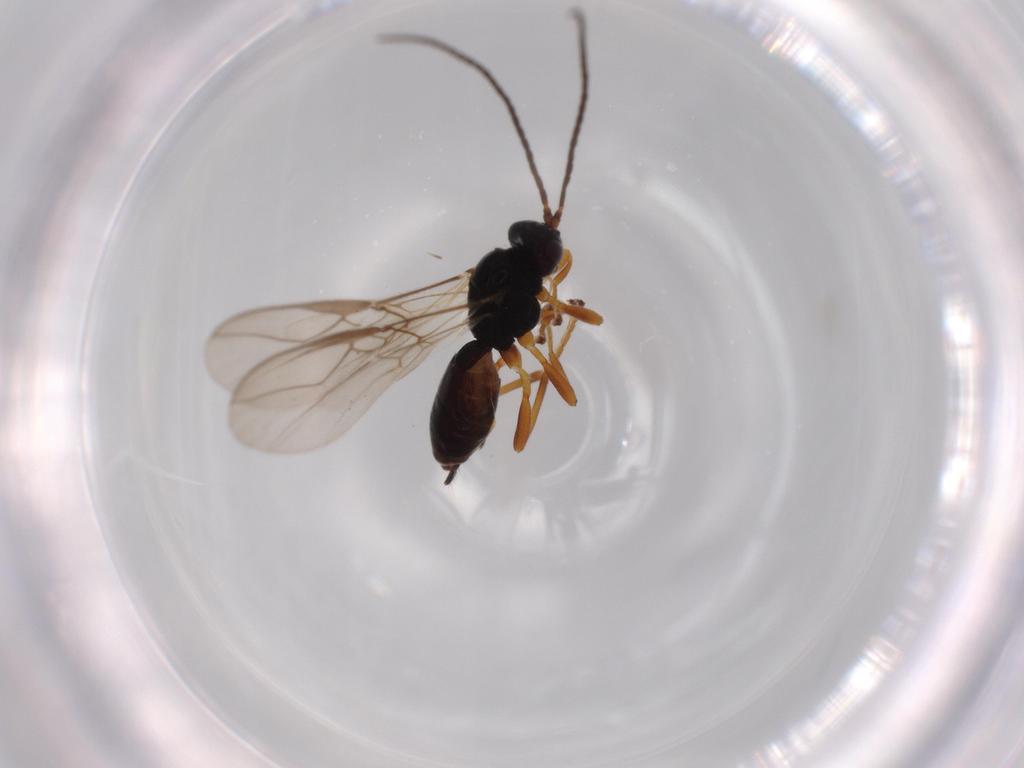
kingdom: Animalia
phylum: Arthropoda
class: Insecta
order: Hymenoptera
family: Braconidae
